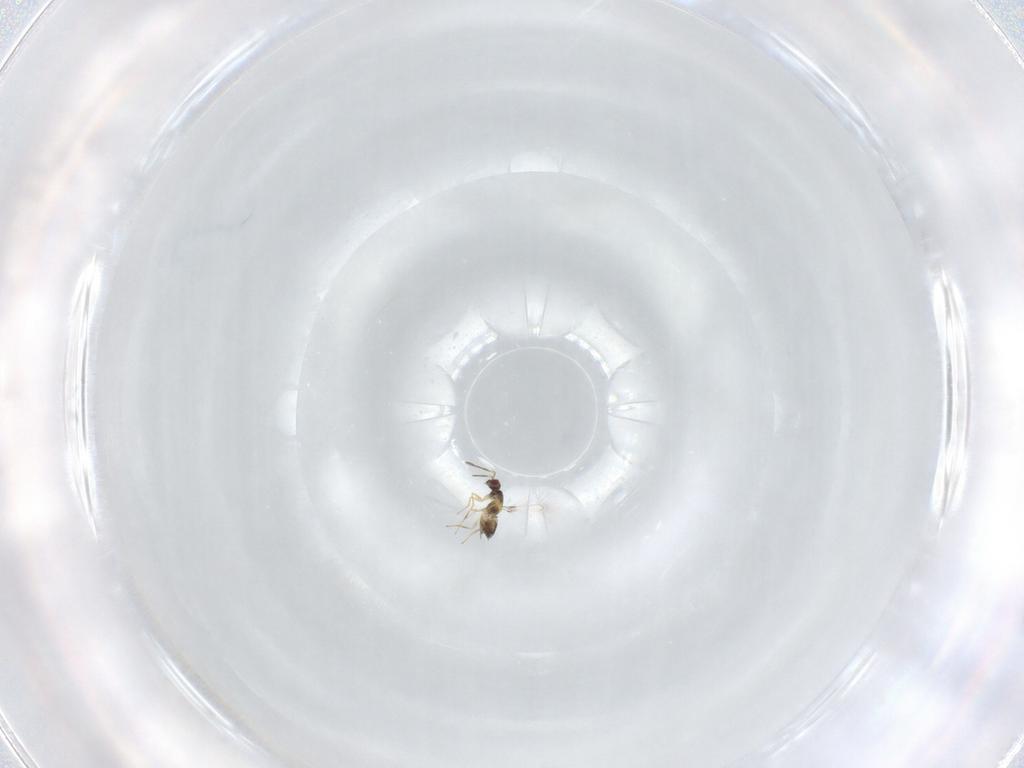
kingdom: Animalia
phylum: Arthropoda
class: Insecta
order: Hymenoptera
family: Mymaridae
